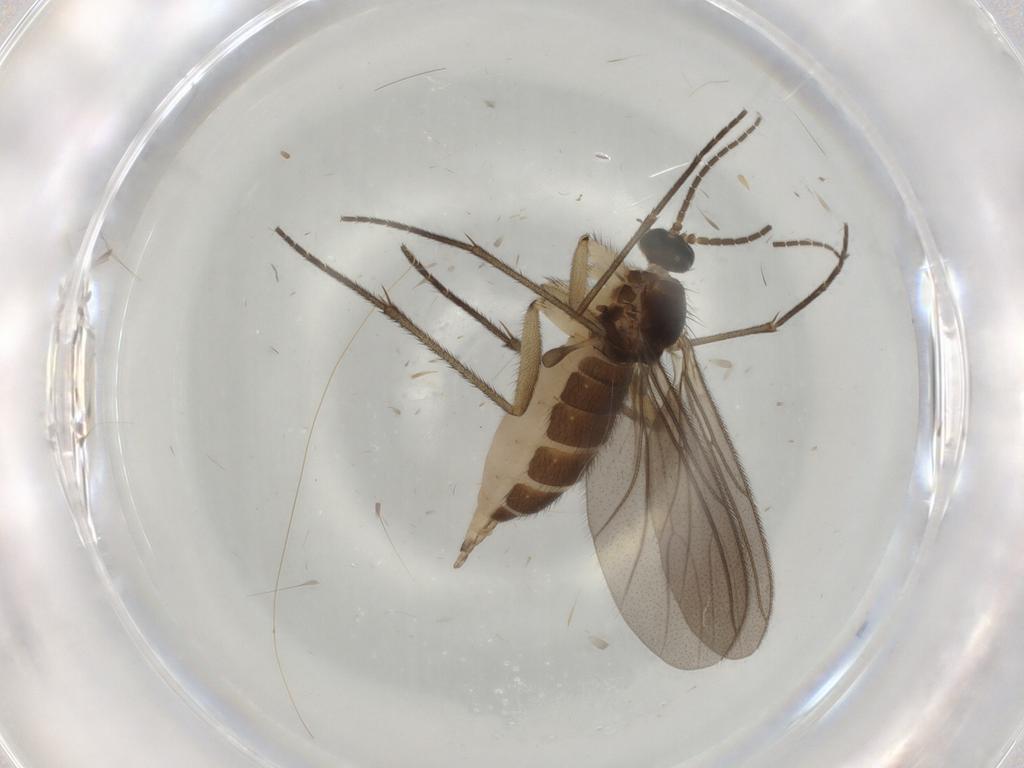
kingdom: Animalia
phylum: Arthropoda
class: Insecta
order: Diptera
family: Sciaridae
